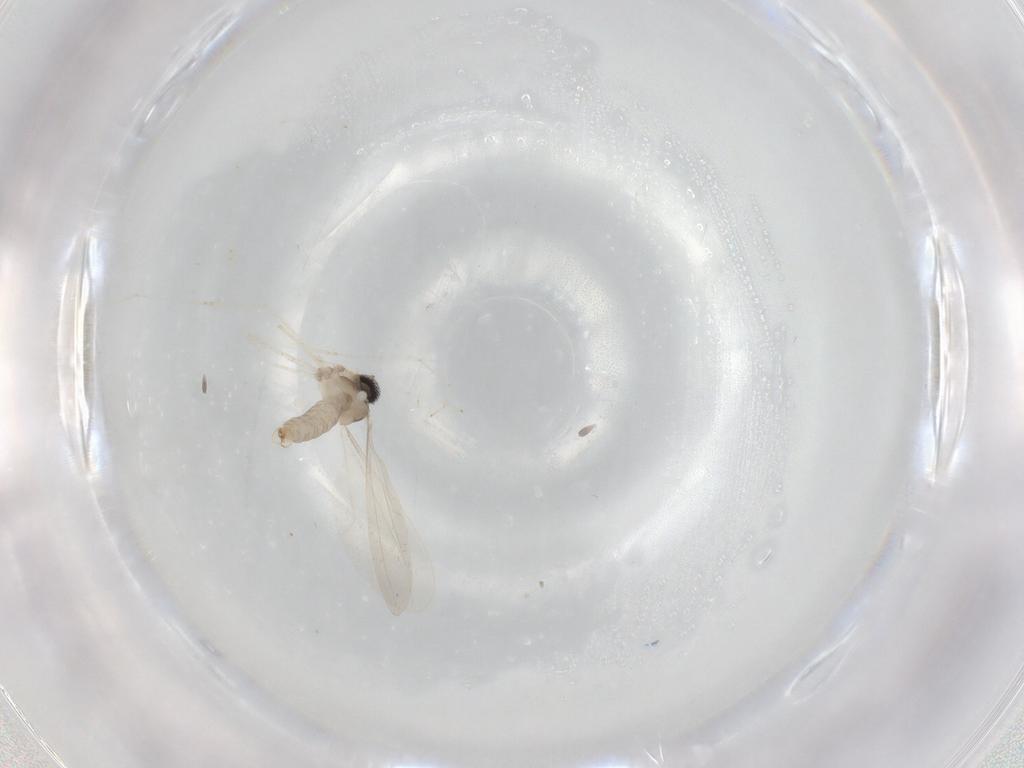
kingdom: Animalia
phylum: Arthropoda
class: Insecta
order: Diptera
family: Cecidomyiidae
